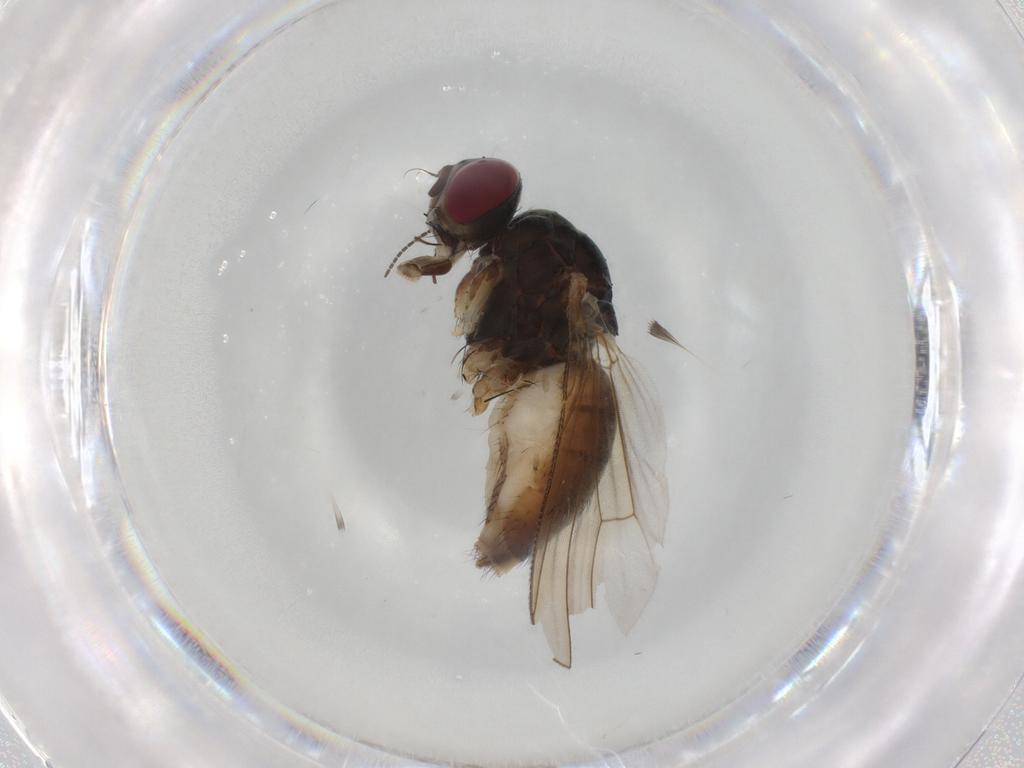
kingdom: Animalia
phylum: Arthropoda
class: Insecta
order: Diptera
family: Muscidae
